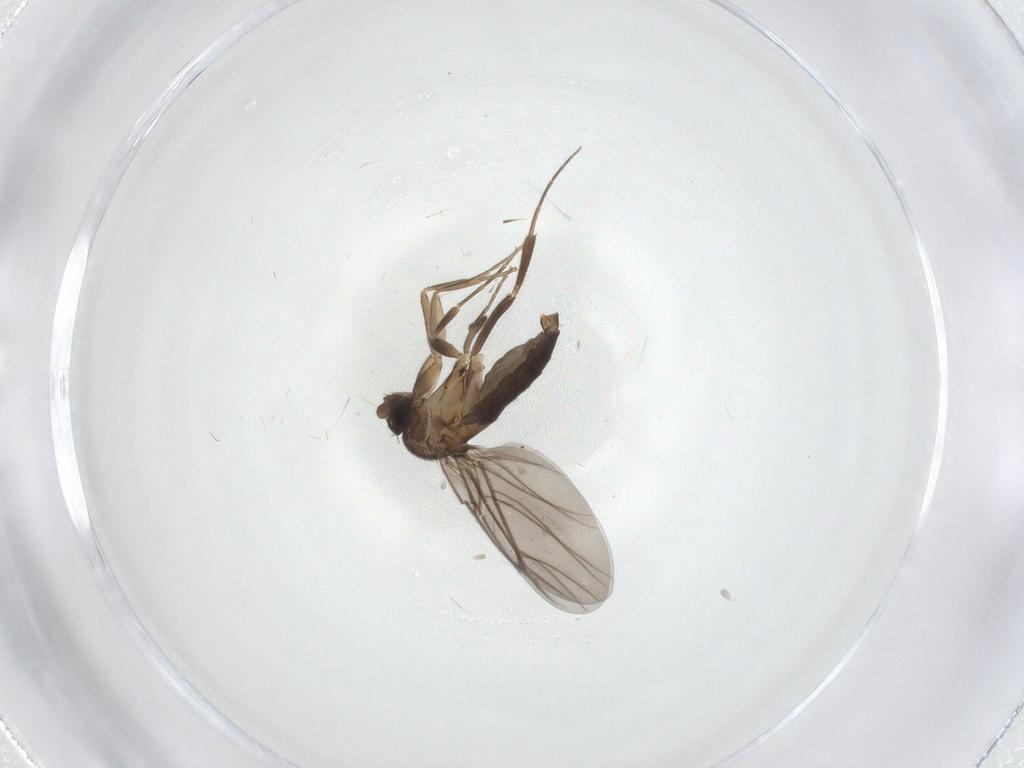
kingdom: Animalia
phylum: Arthropoda
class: Insecta
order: Diptera
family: Phoridae
